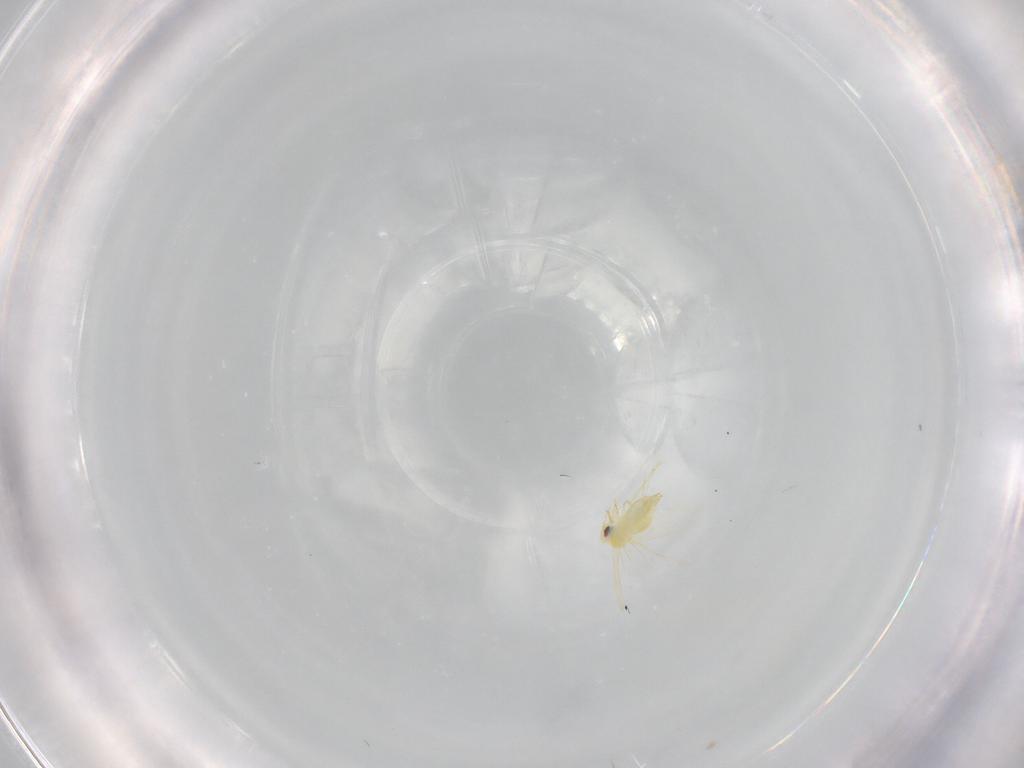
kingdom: Animalia
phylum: Arthropoda
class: Insecta
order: Hemiptera
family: Aleyrodidae
